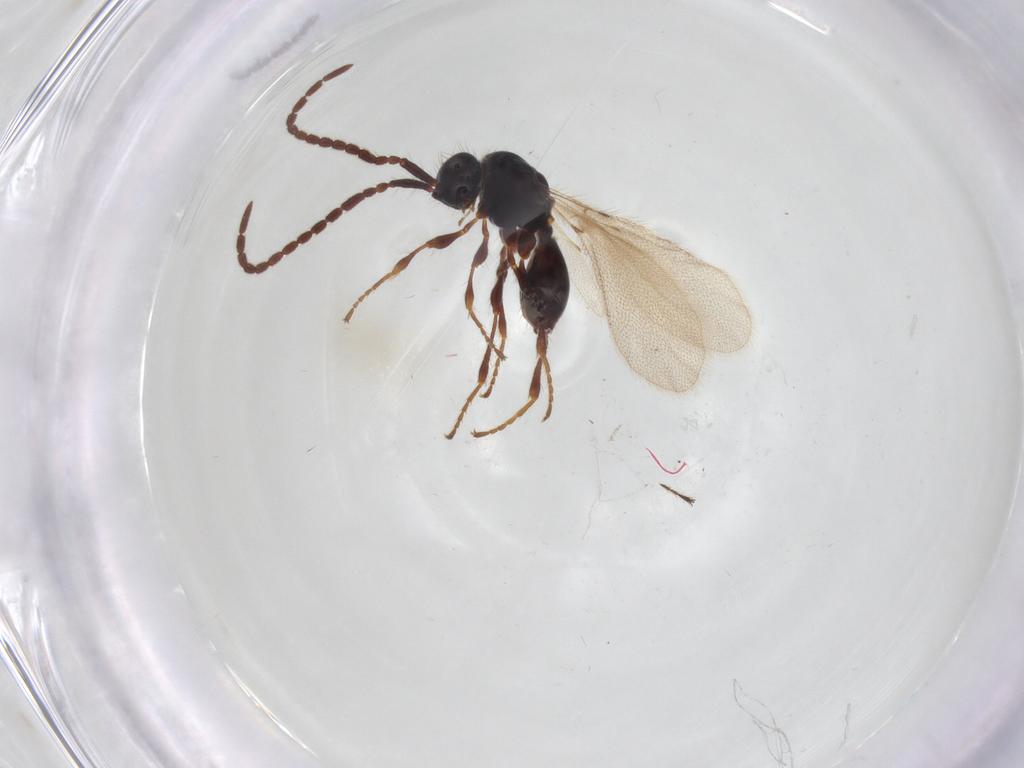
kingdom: Animalia
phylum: Arthropoda
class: Insecta
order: Hymenoptera
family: Diapriidae
